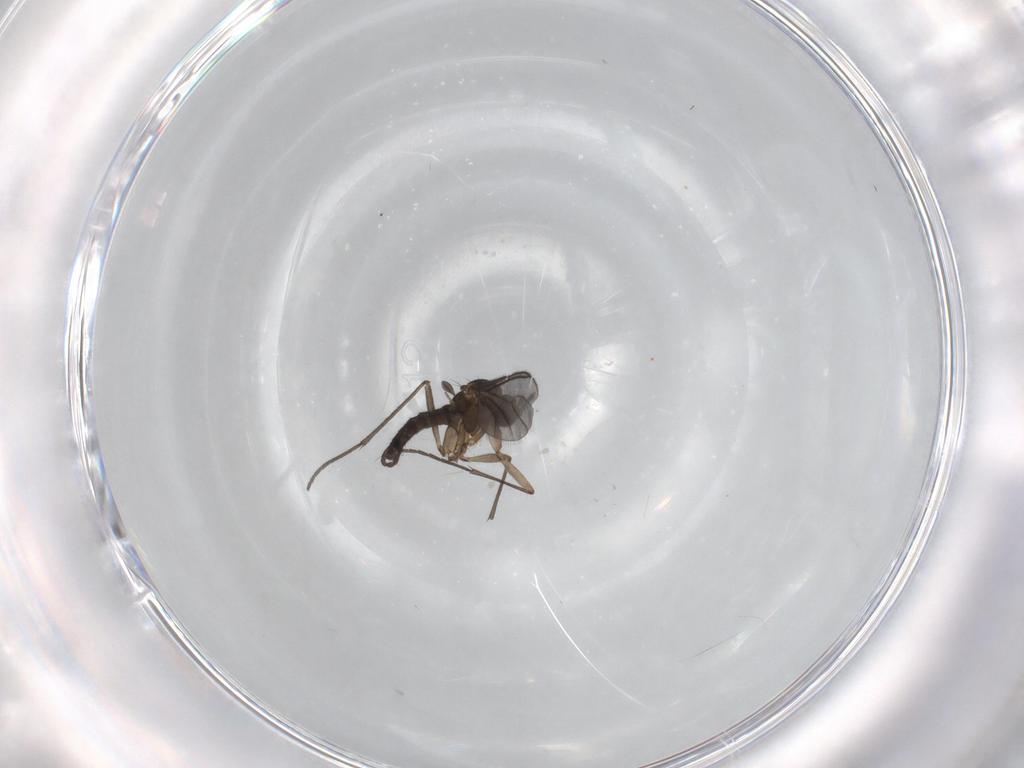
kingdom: Animalia
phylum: Arthropoda
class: Insecta
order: Diptera
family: Sciaridae
